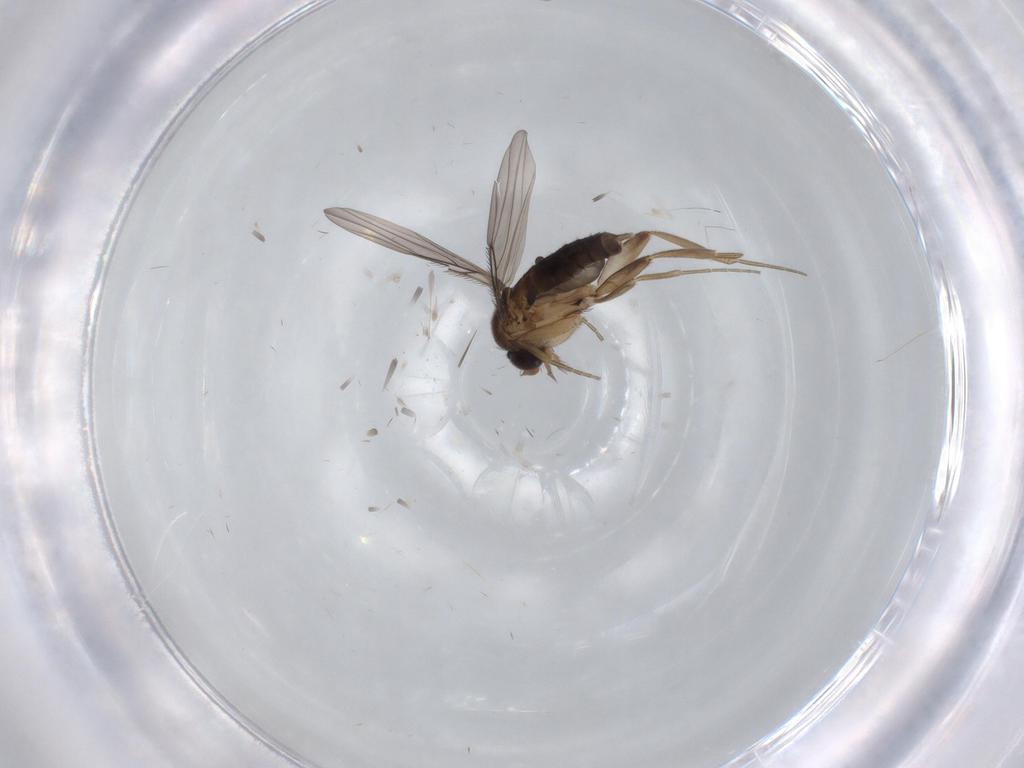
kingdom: Animalia
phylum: Arthropoda
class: Insecta
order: Diptera
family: Phoridae
